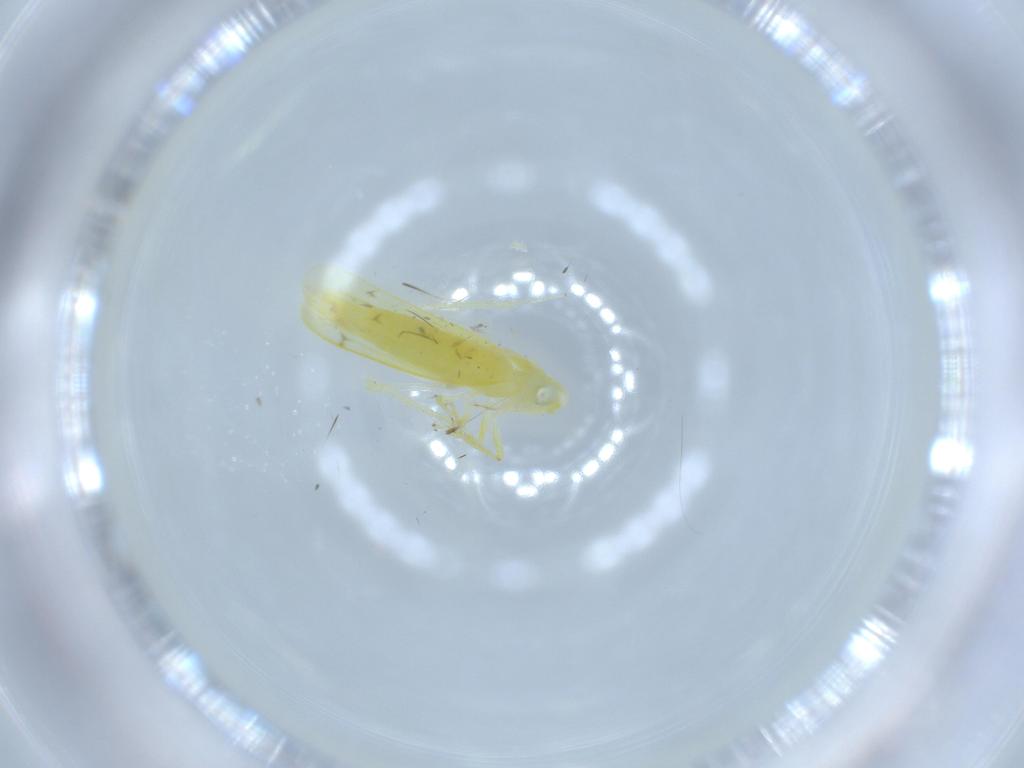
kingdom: Animalia
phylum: Arthropoda
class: Insecta
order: Hemiptera
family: Cicadellidae
